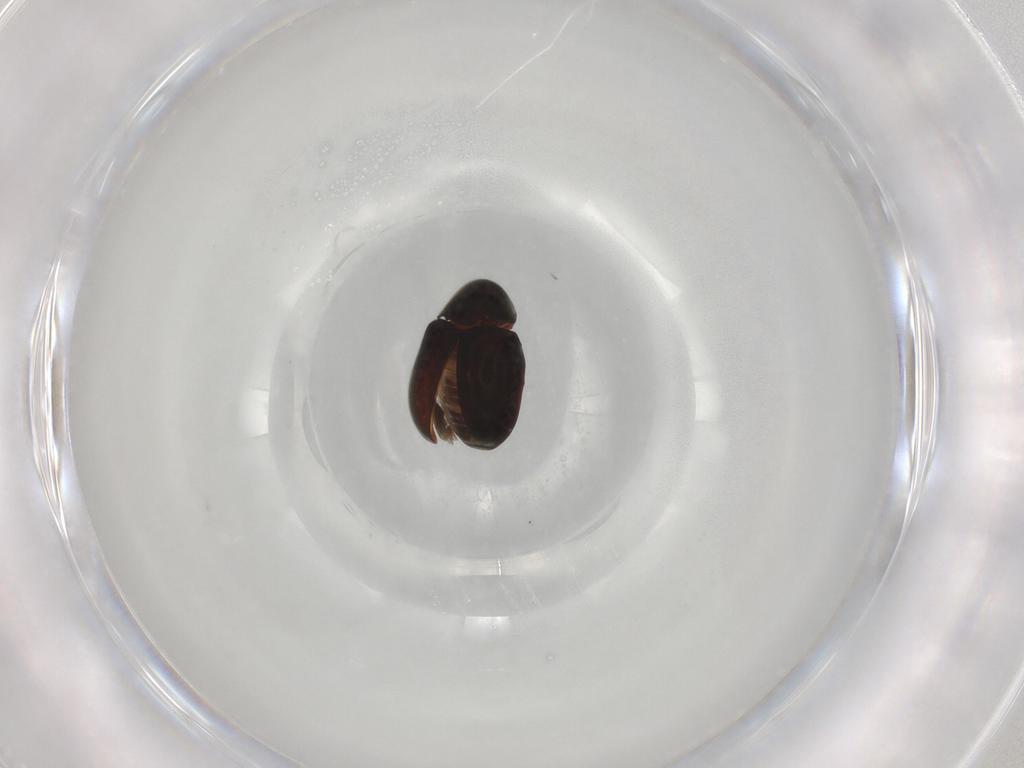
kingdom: Animalia
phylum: Arthropoda
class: Insecta
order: Coleoptera
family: Ptinidae
